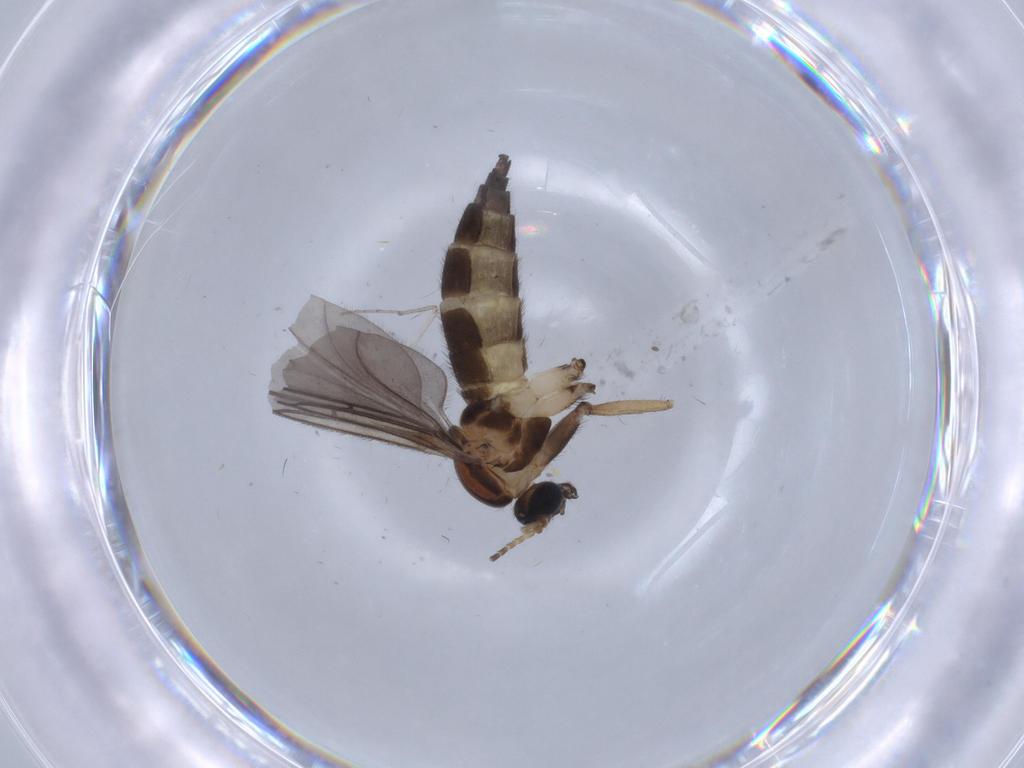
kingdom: Animalia
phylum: Arthropoda
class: Insecta
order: Diptera
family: Sciaridae
